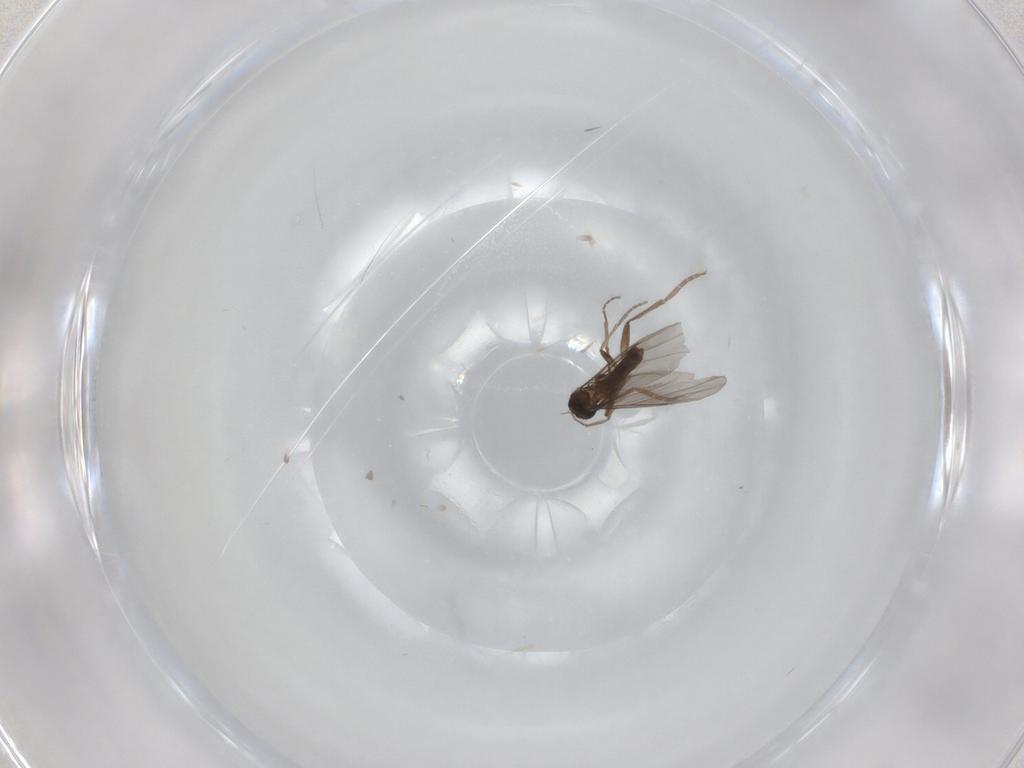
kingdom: Animalia
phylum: Arthropoda
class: Insecta
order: Diptera
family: Phoridae
